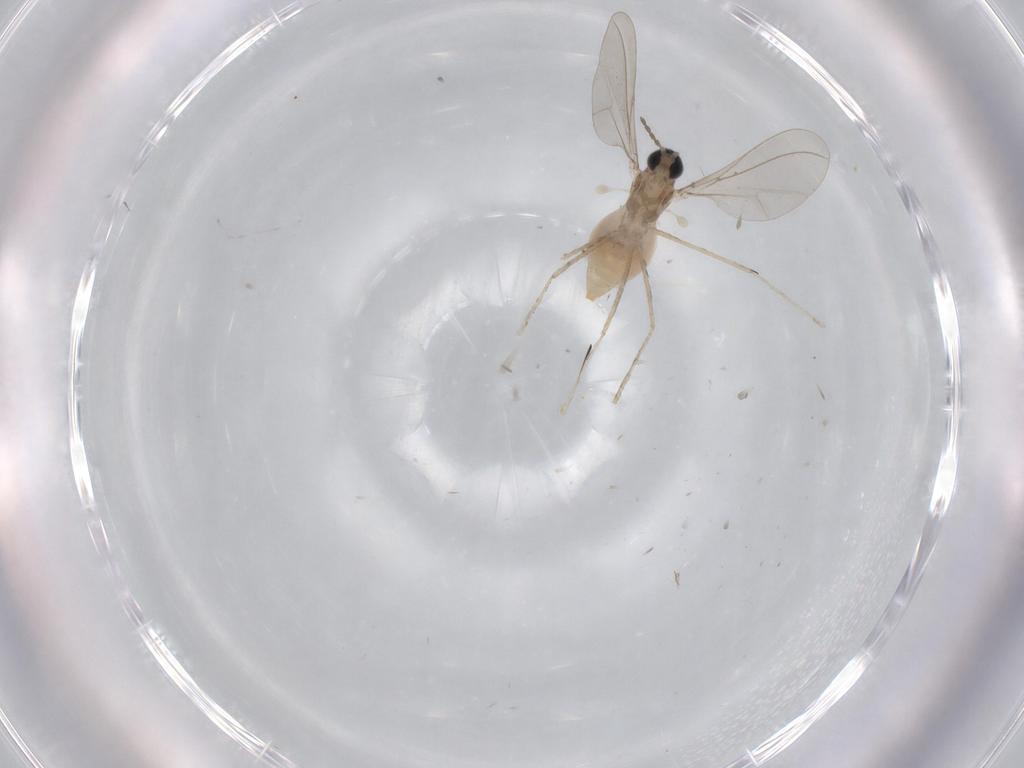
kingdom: Animalia
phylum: Arthropoda
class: Insecta
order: Diptera
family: Cecidomyiidae
